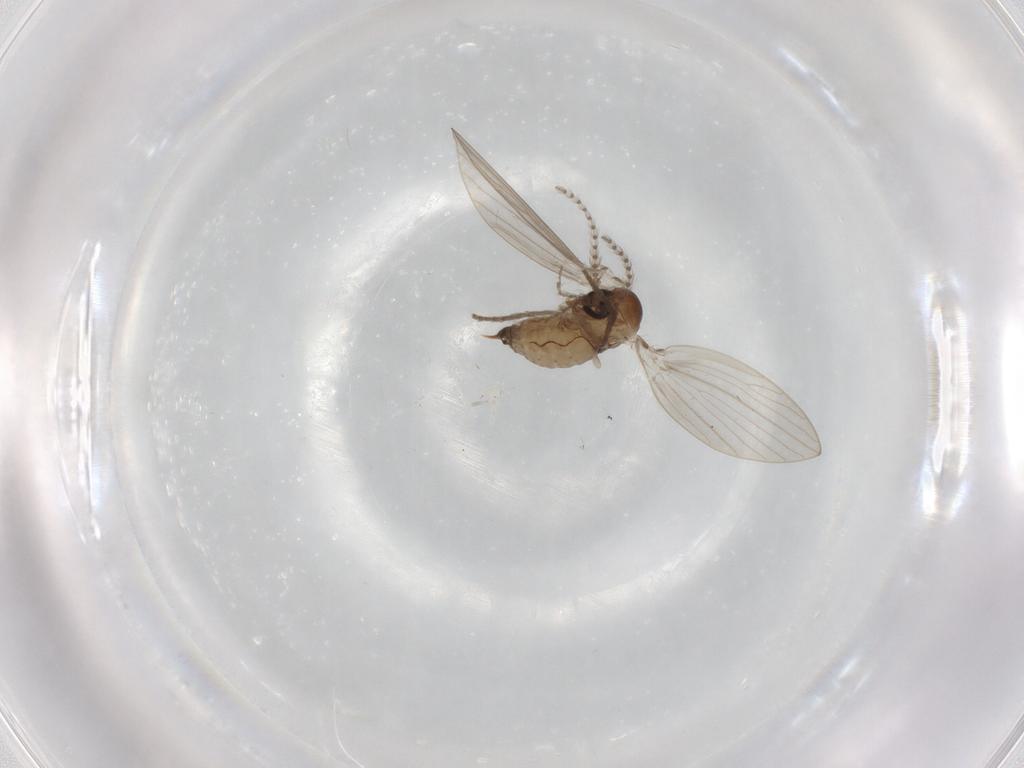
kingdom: Animalia
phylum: Arthropoda
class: Insecta
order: Diptera
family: Psychodidae
